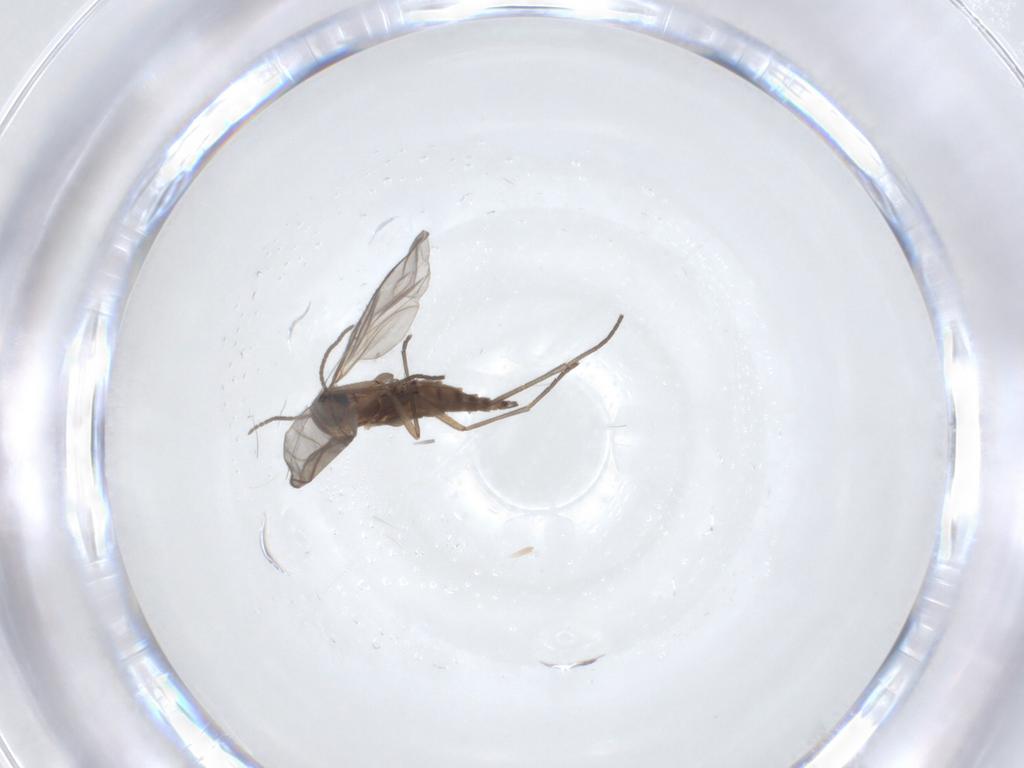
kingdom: Animalia
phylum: Arthropoda
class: Insecta
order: Diptera
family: Sciaridae
